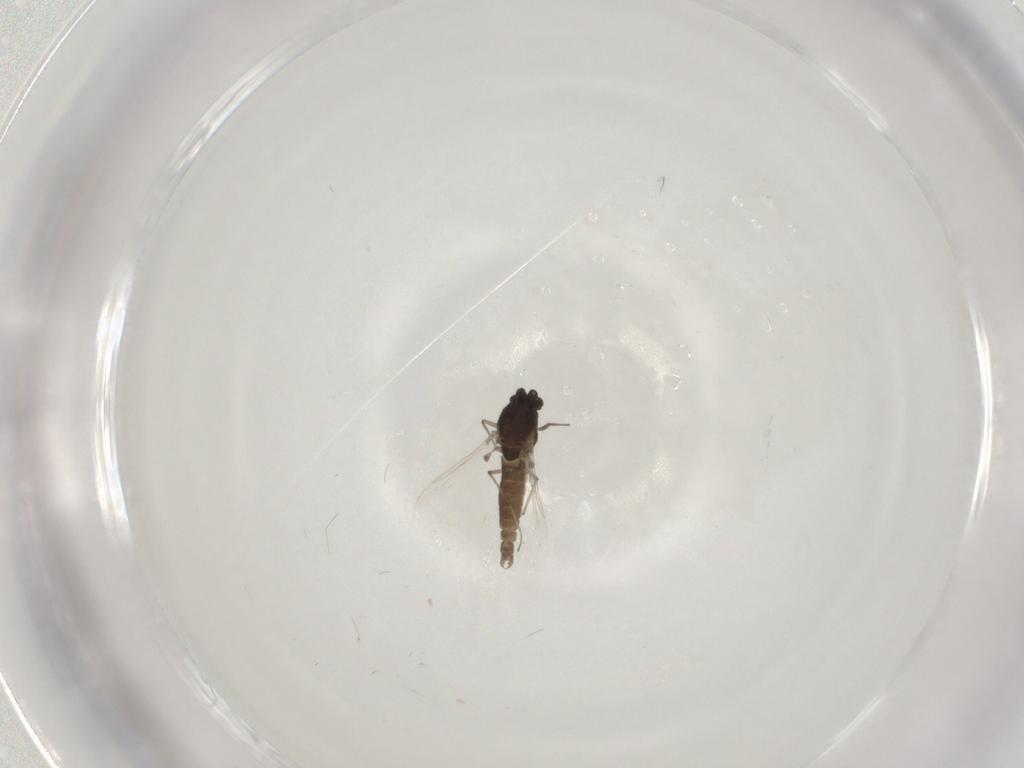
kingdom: Animalia
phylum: Arthropoda
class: Insecta
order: Diptera
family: Chironomidae
